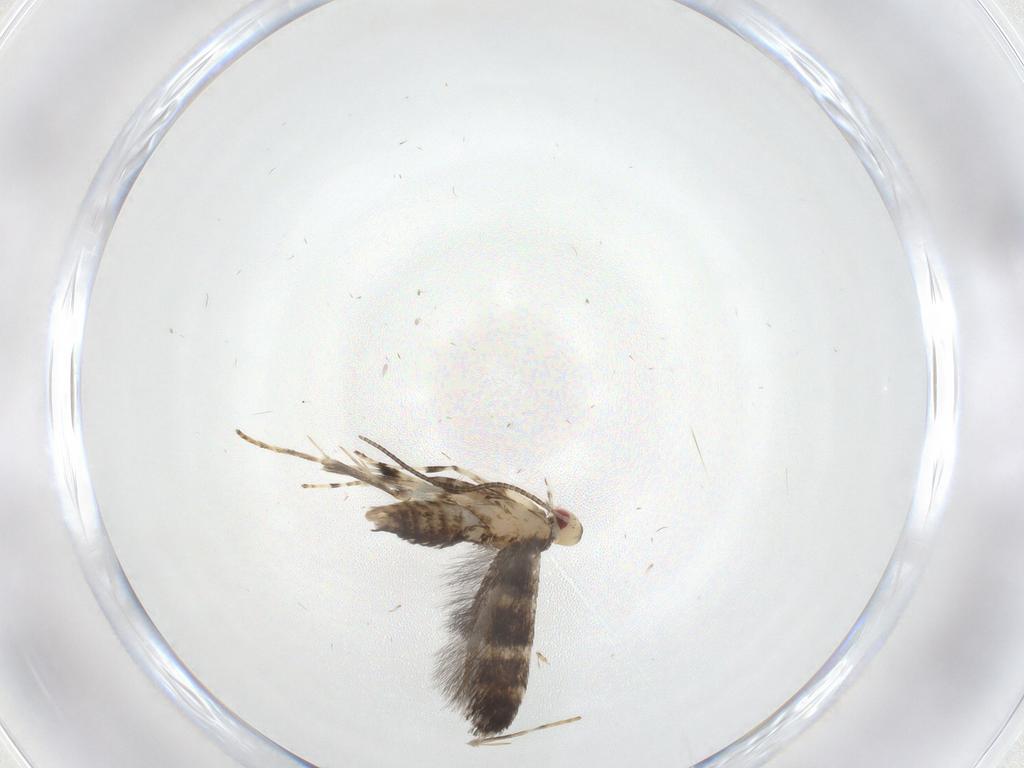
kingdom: Animalia
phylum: Arthropoda
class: Insecta
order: Lepidoptera
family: Gracillariidae
